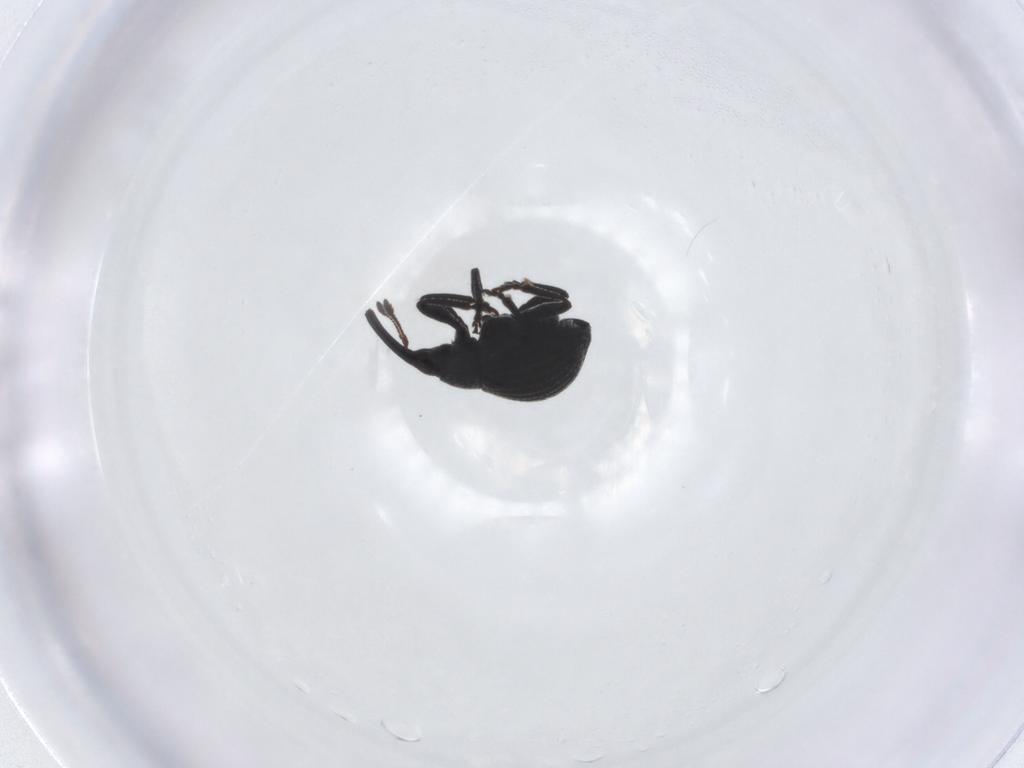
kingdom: Animalia
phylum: Arthropoda
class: Insecta
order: Coleoptera
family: Brentidae
